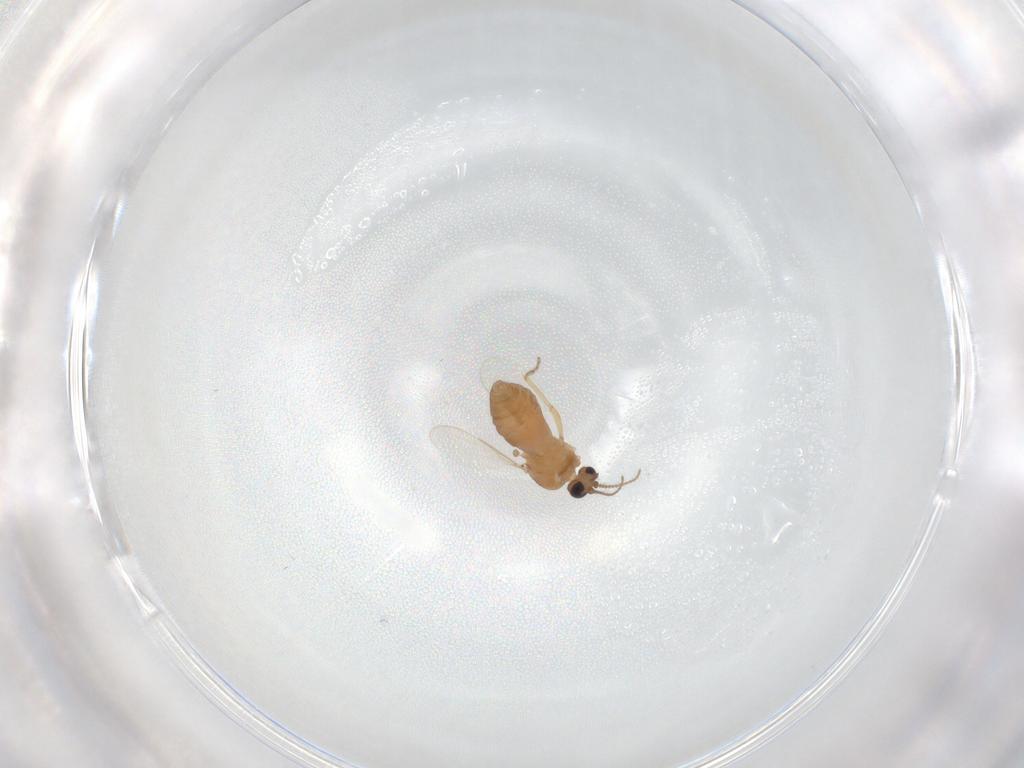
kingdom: Animalia
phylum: Arthropoda
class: Insecta
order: Diptera
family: Ceratopogonidae
